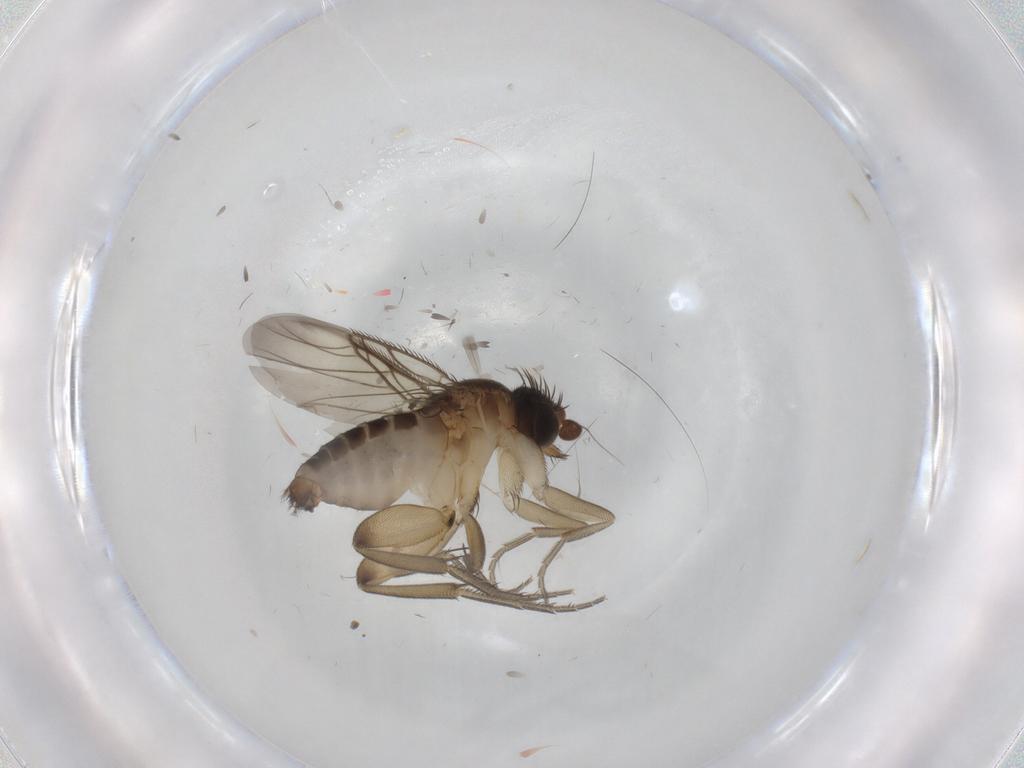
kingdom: Animalia
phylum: Arthropoda
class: Insecta
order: Diptera
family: Phoridae
